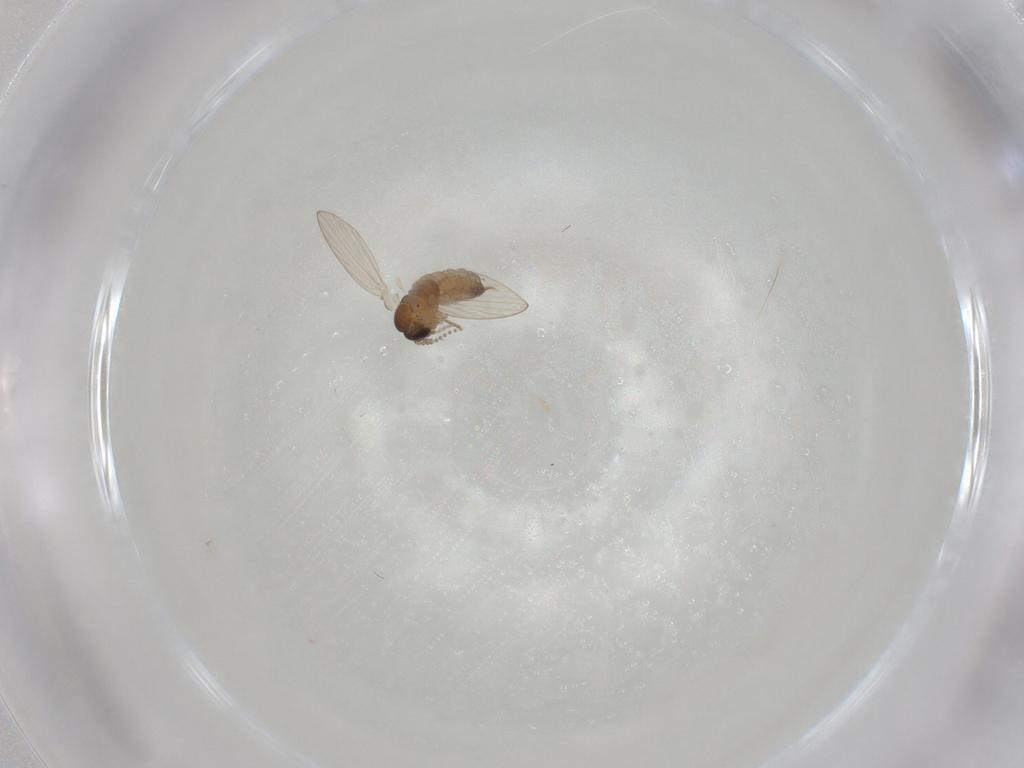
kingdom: Animalia
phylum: Arthropoda
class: Insecta
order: Diptera
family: Psychodidae
